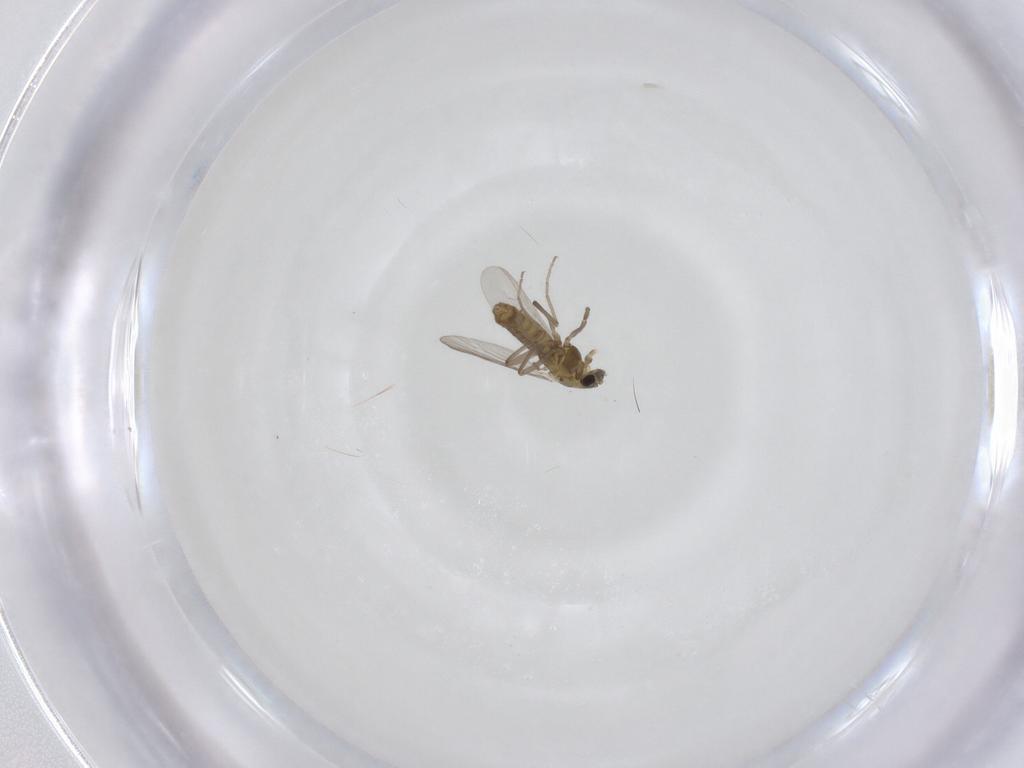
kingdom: Animalia
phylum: Arthropoda
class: Insecta
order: Diptera
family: Chironomidae
